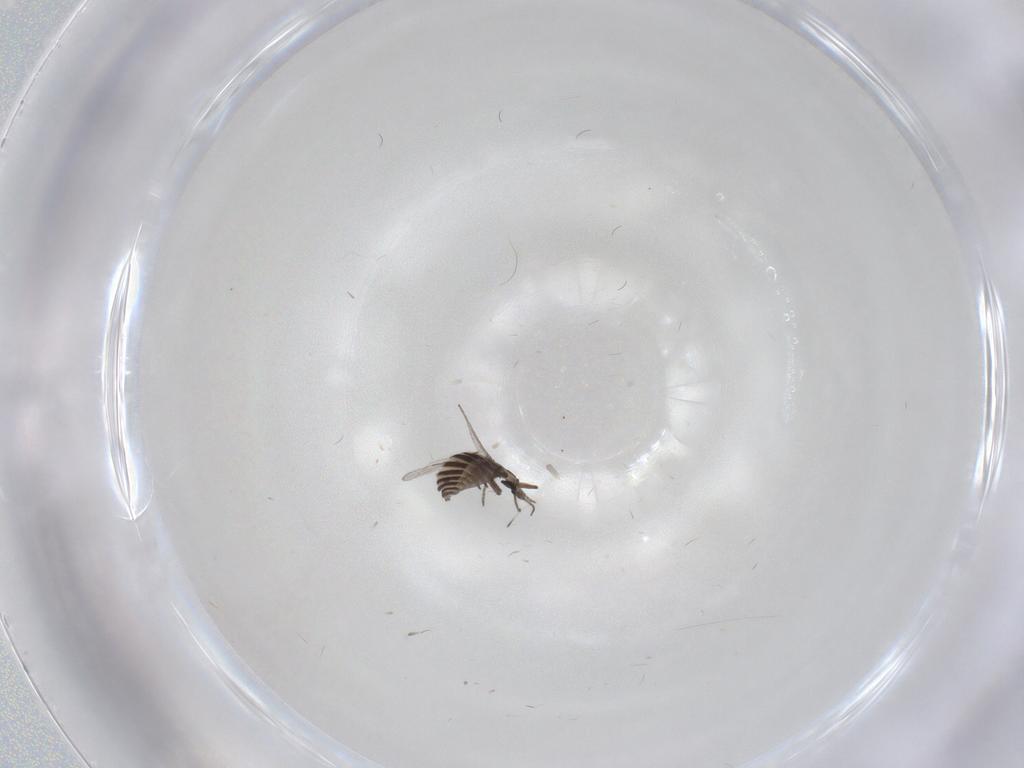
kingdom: Animalia
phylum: Arthropoda
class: Insecta
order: Diptera
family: Ceratopogonidae
